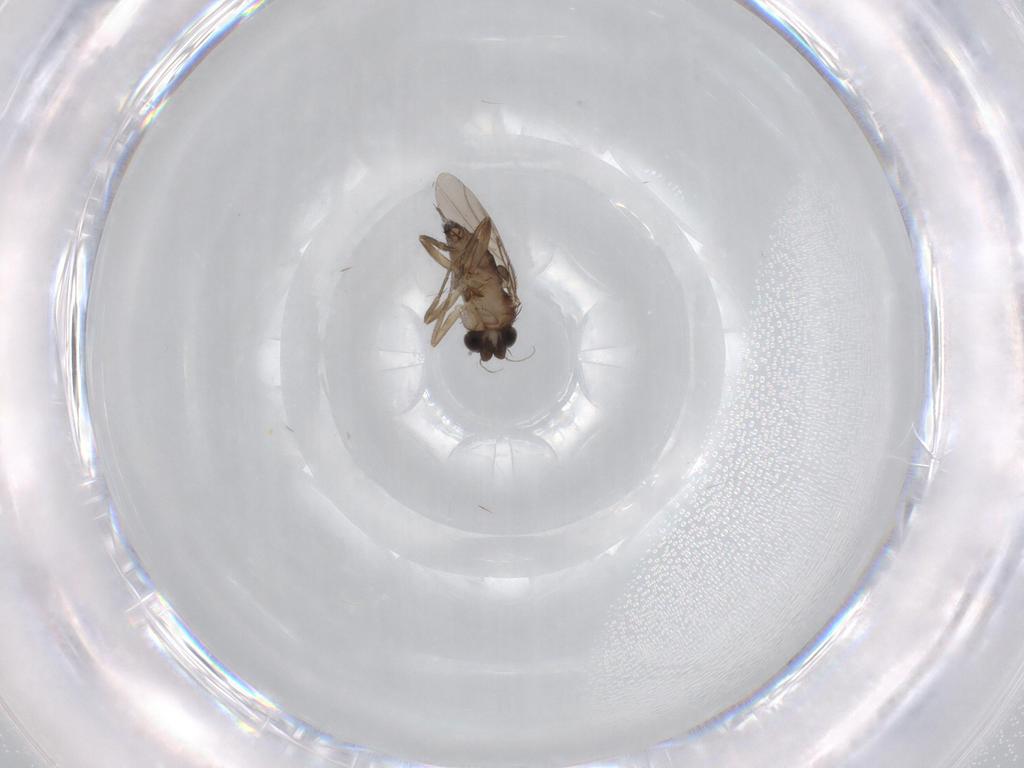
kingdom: Animalia
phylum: Arthropoda
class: Insecta
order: Diptera
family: Phoridae
